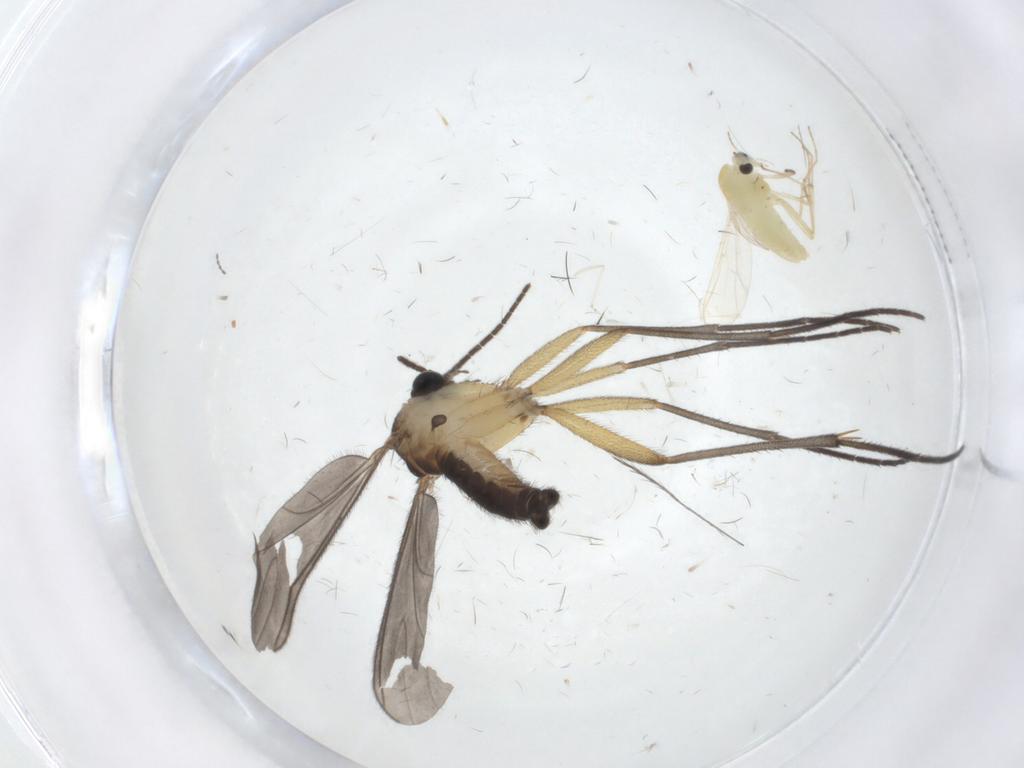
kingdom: Animalia
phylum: Arthropoda
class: Insecta
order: Diptera
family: Sciaridae
